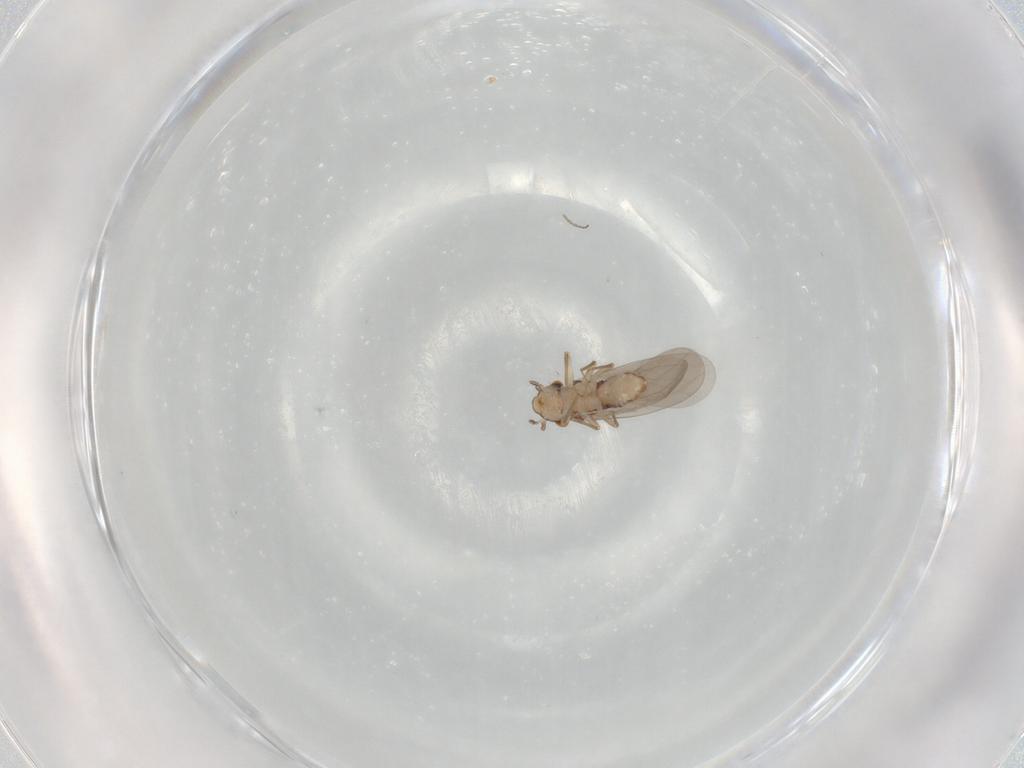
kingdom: Animalia
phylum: Arthropoda
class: Insecta
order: Psocodea
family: Lepidopsocidae
